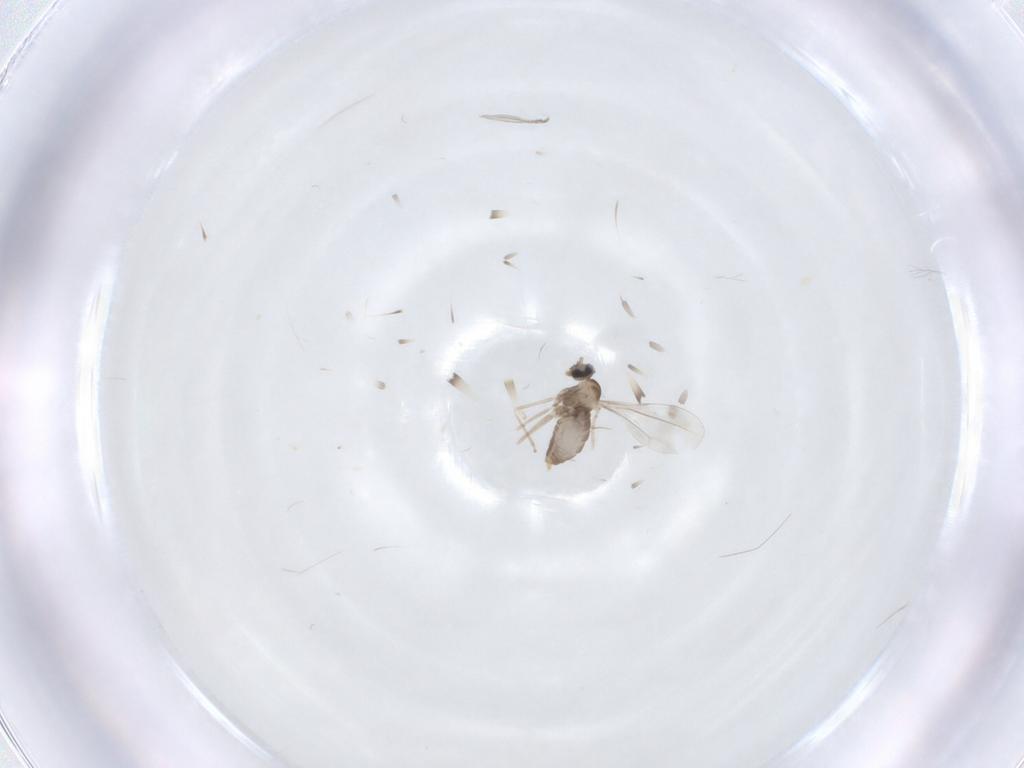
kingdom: Animalia
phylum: Arthropoda
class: Insecta
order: Diptera
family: Cecidomyiidae
